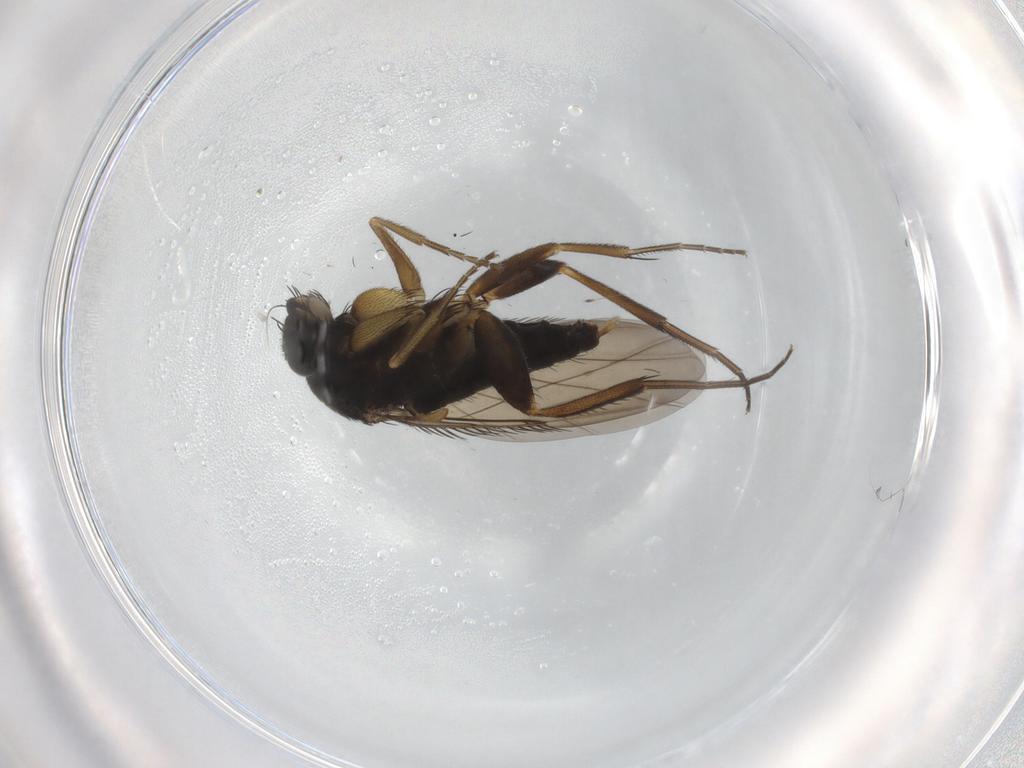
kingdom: Animalia
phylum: Arthropoda
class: Insecta
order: Diptera
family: Phoridae
